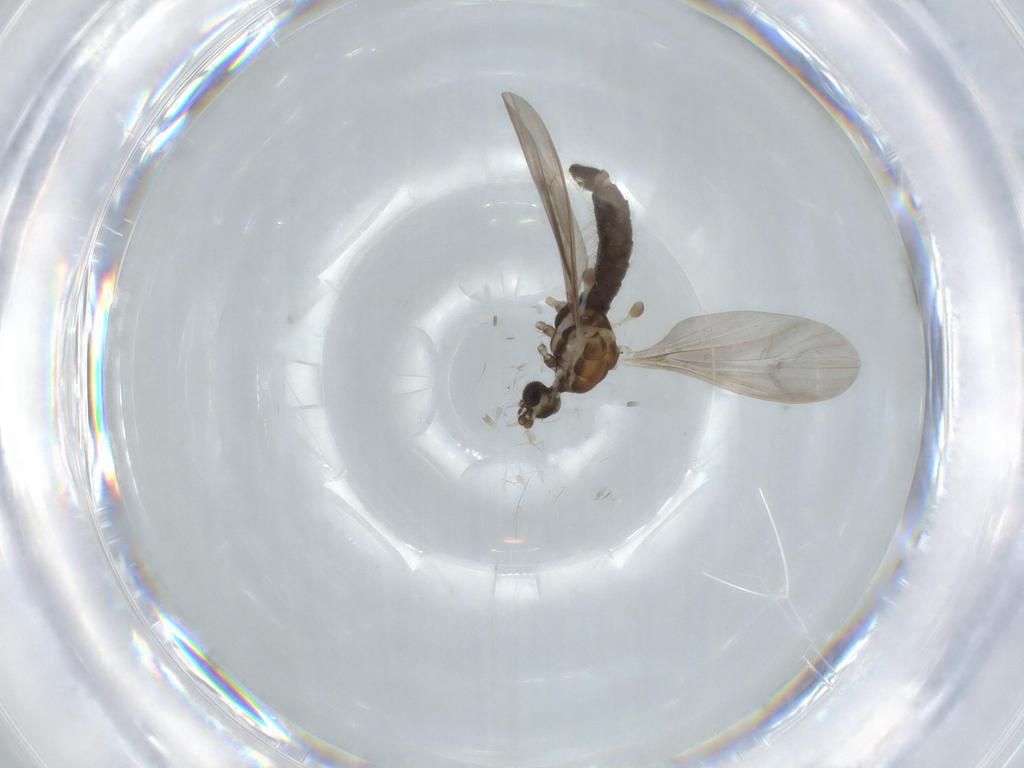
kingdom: Animalia
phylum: Arthropoda
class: Insecta
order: Diptera
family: Limoniidae
